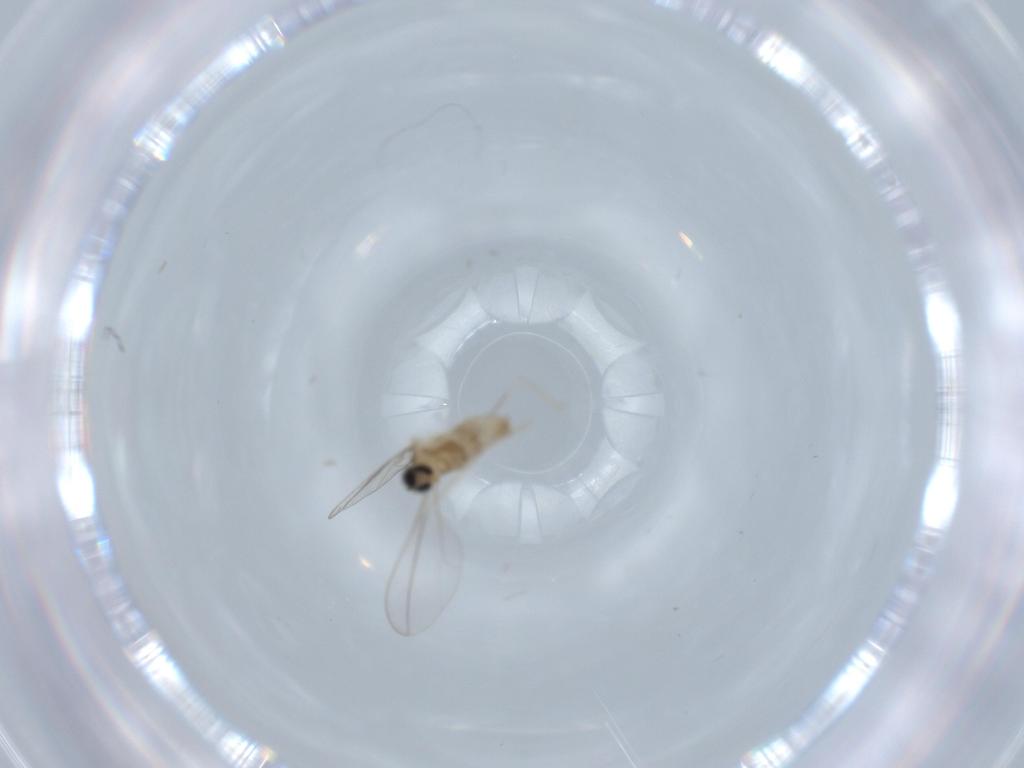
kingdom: Animalia
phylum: Arthropoda
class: Insecta
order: Diptera
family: Cecidomyiidae
